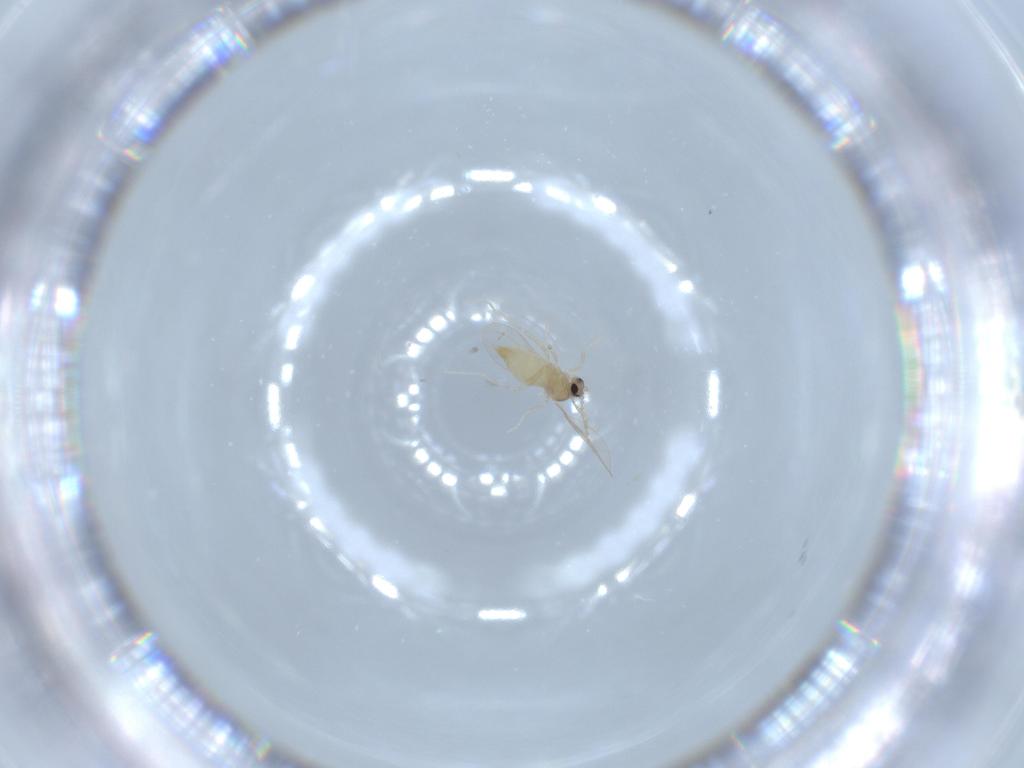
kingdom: Animalia
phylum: Arthropoda
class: Insecta
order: Diptera
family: Cecidomyiidae
